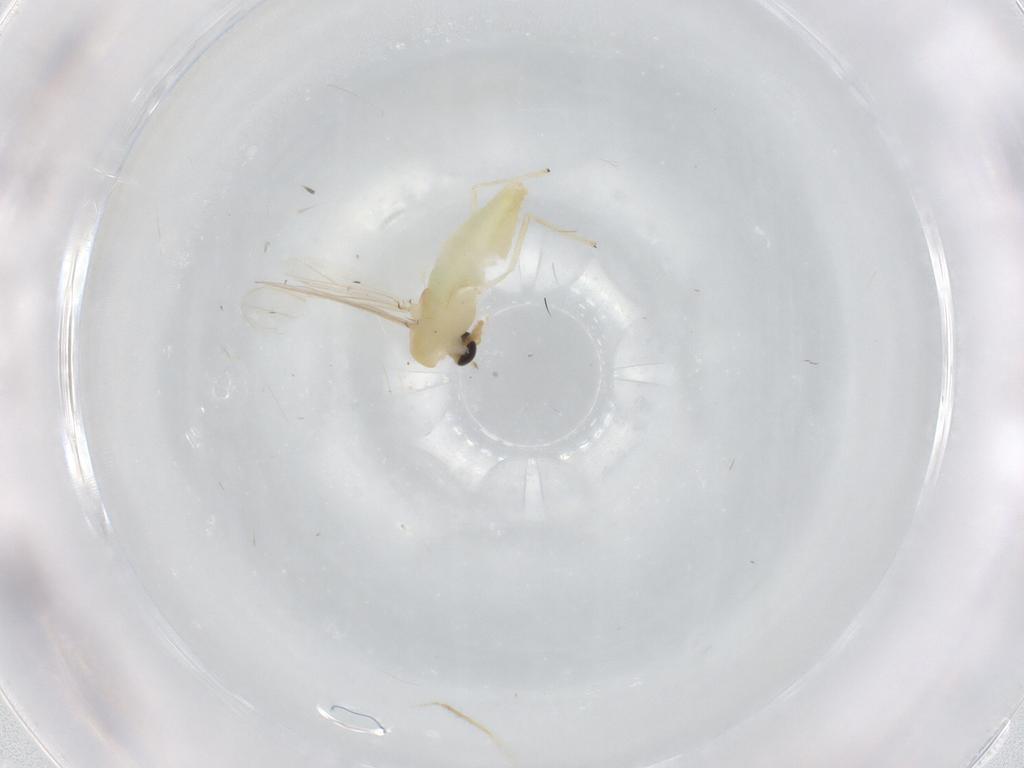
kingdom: Animalia
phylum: Arthropoda
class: Insecta
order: Diptera
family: Chironomidae
